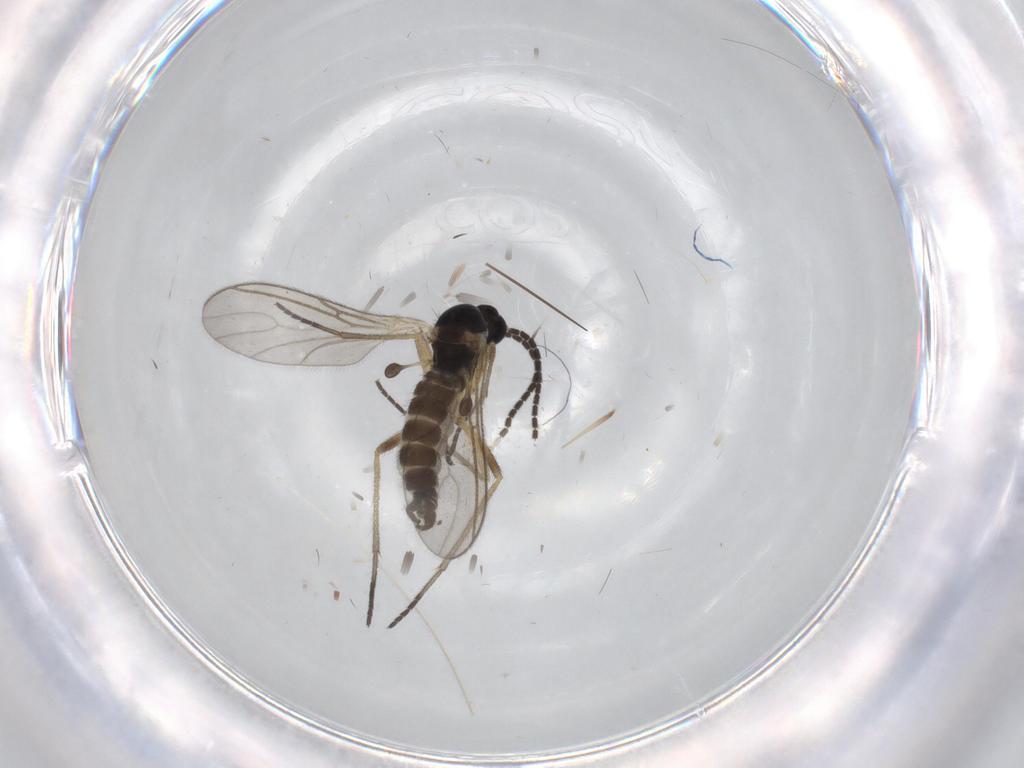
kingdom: Animalia
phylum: Arthropoda
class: Insecta
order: Diptera
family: Sciaridae
